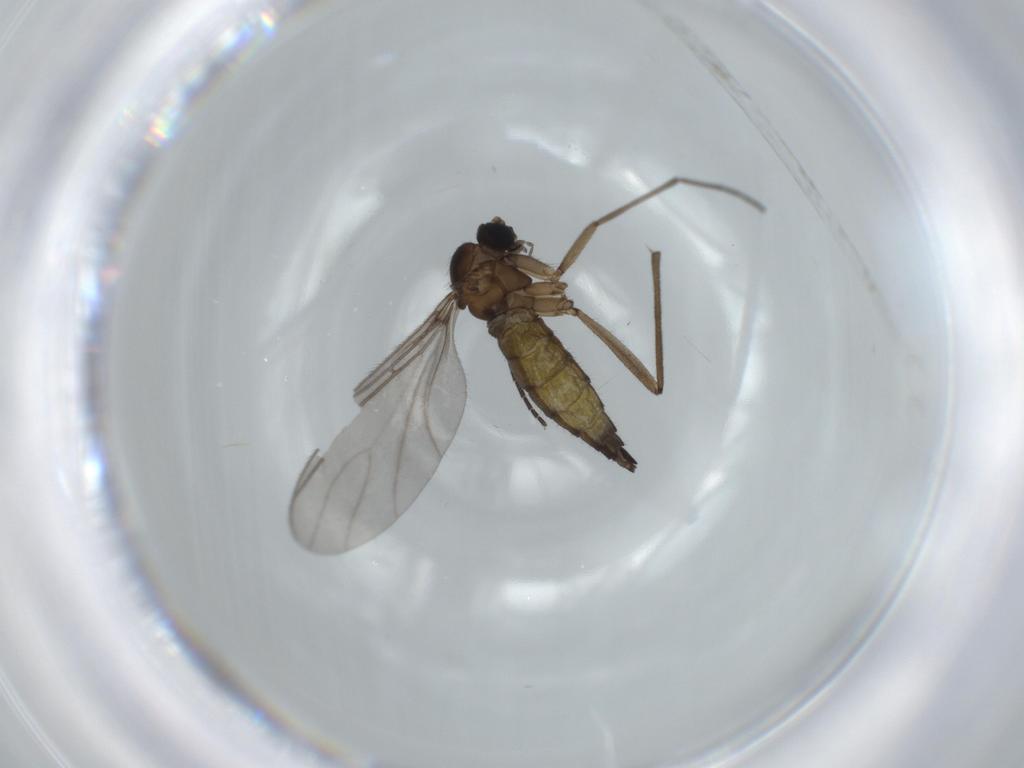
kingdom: Animalia
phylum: Arthropoda
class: Insecta
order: Diptera
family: Sciaridae
